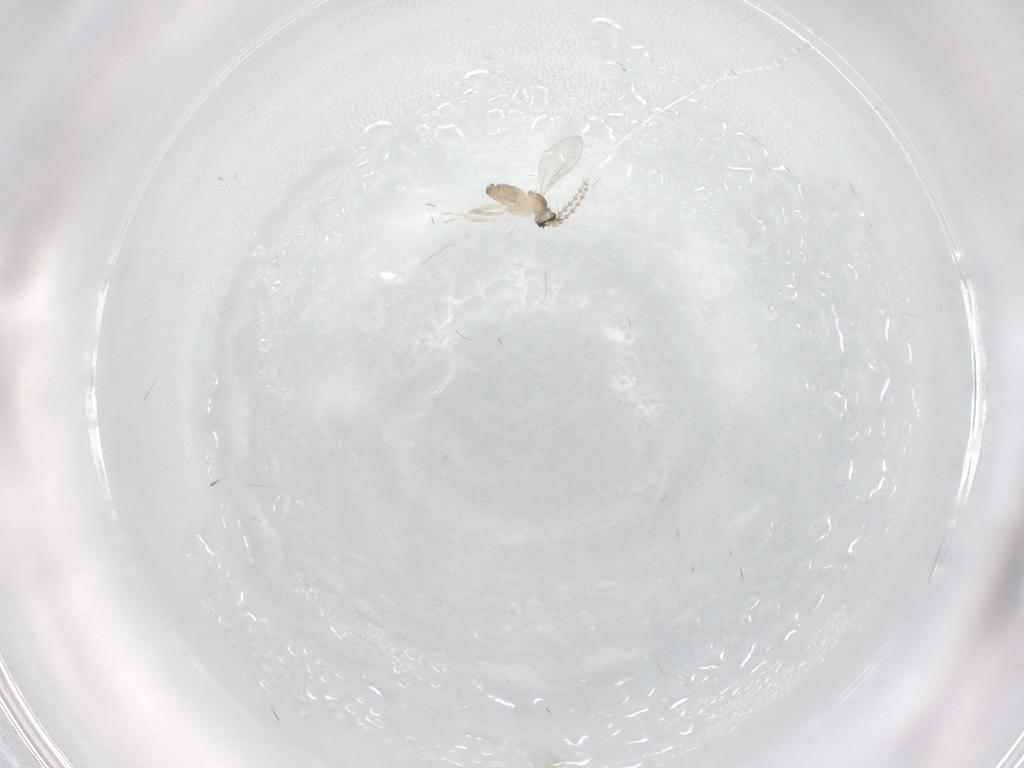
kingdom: Animalia
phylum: Arthropoda
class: Insecta
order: Diptera
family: Cecidomyiidae
